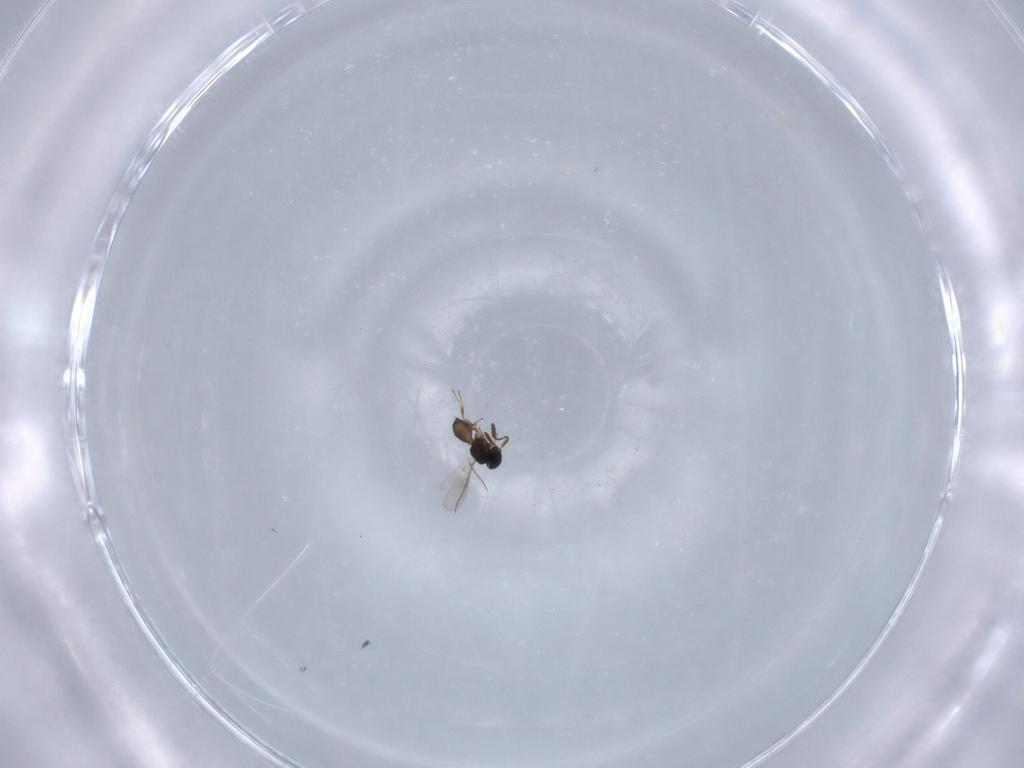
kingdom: Animalia
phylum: Arthropoda
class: Insecta
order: Hymenoptera
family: Scelionidae
